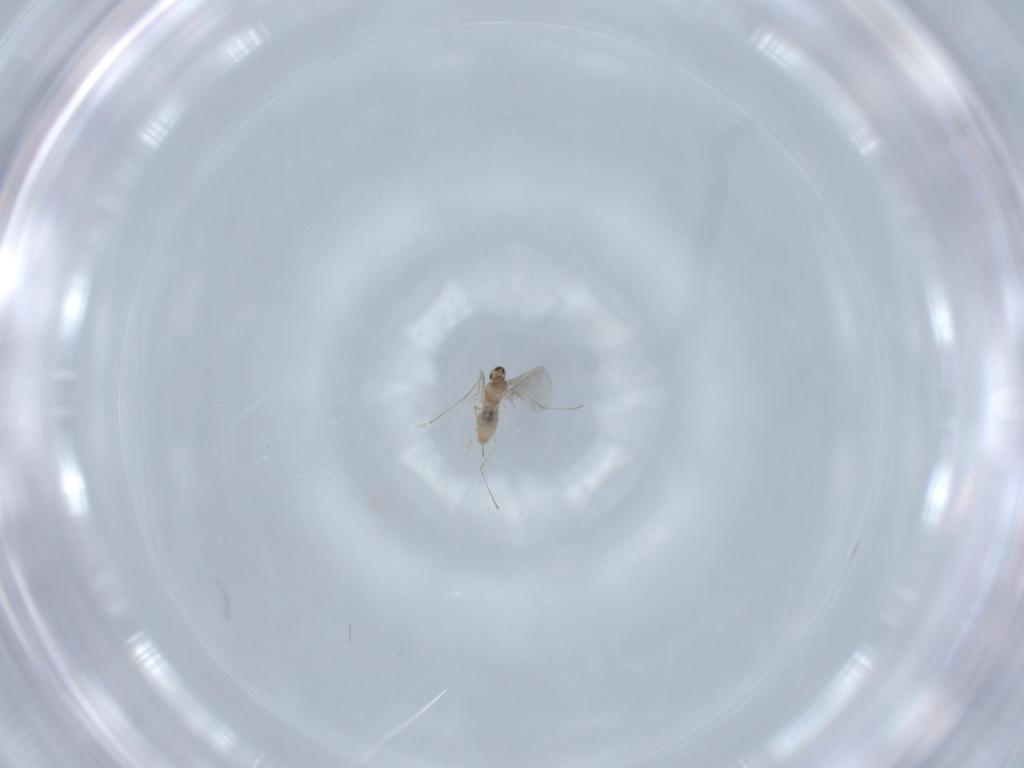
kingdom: Animalia
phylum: Arthropoda
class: Insecta
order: Diptera
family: Cecidomyiidae
